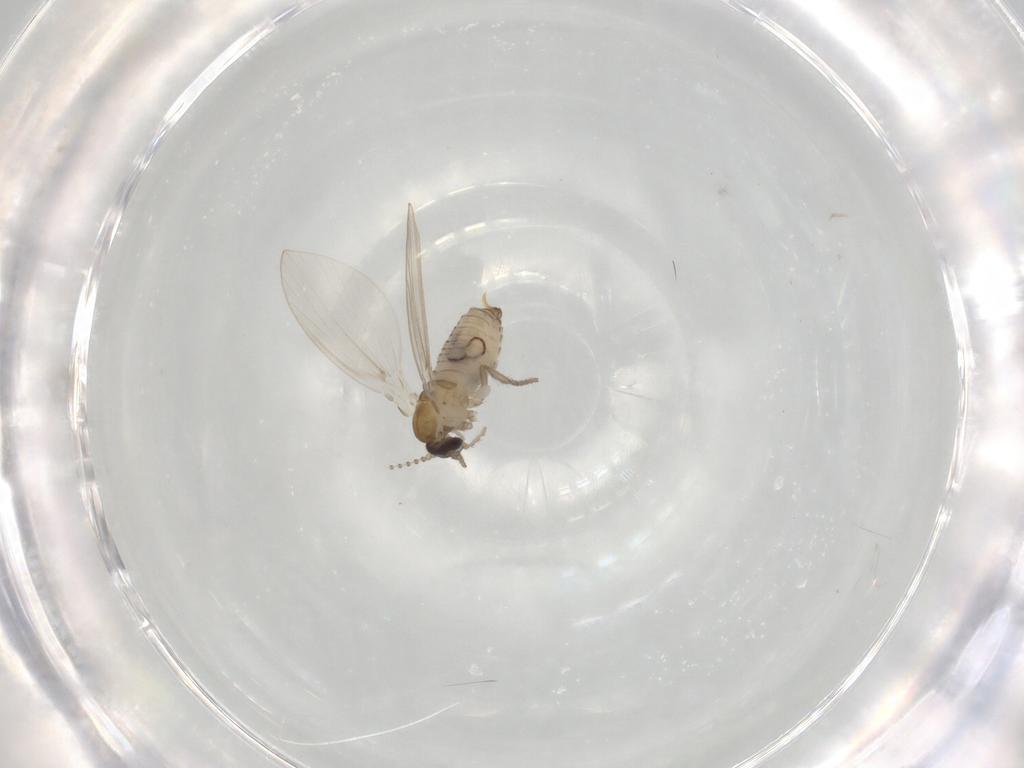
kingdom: Animalia
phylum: Arthropoda
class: Insecta
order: Diptera
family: Psychodidae
